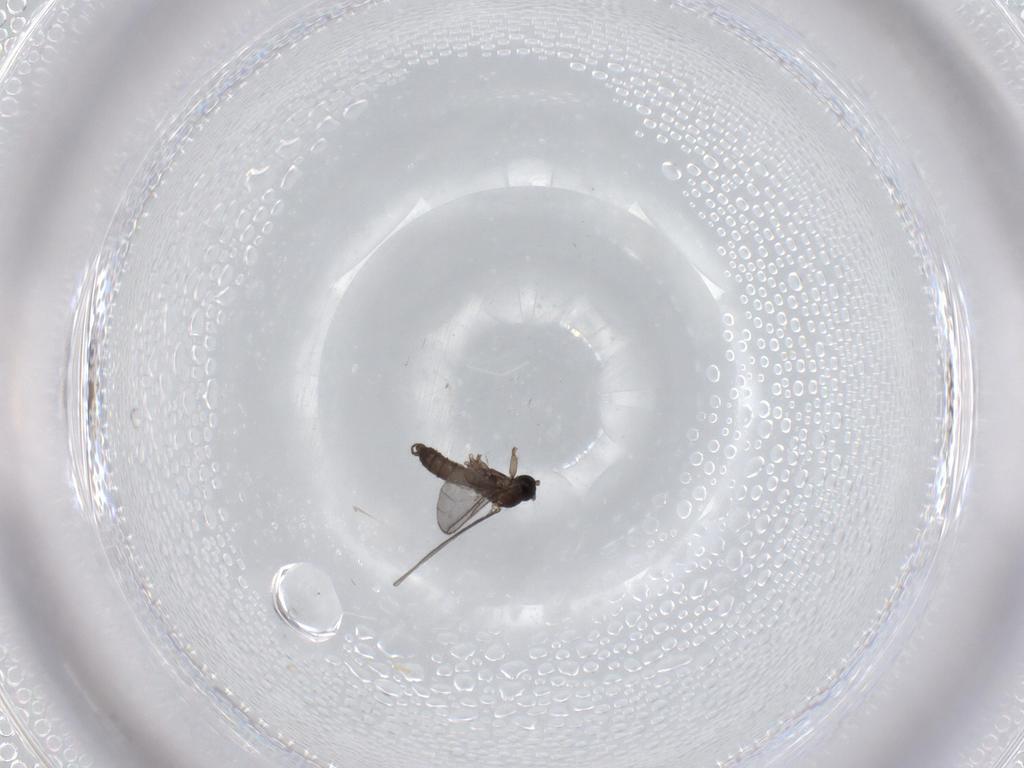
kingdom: Animalia
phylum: Arthropoda
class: Insecta
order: Diptera
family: Sciaridae
